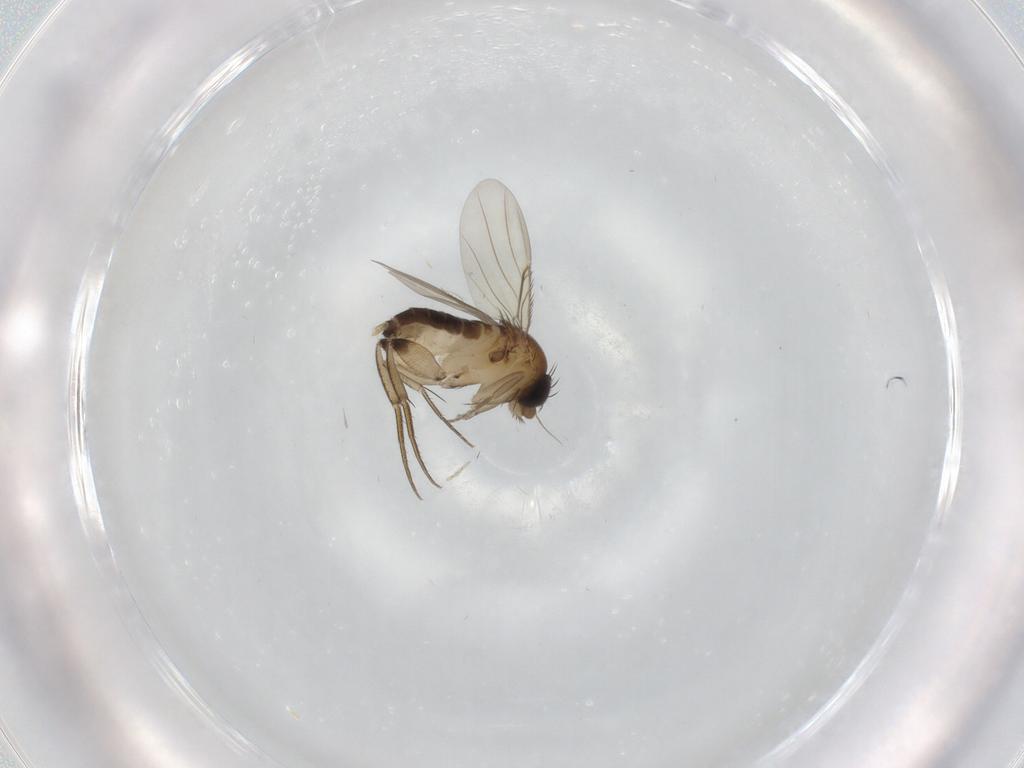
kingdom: Animalia
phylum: Arthropoda
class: Insecta
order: Diptera
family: Phoridae
